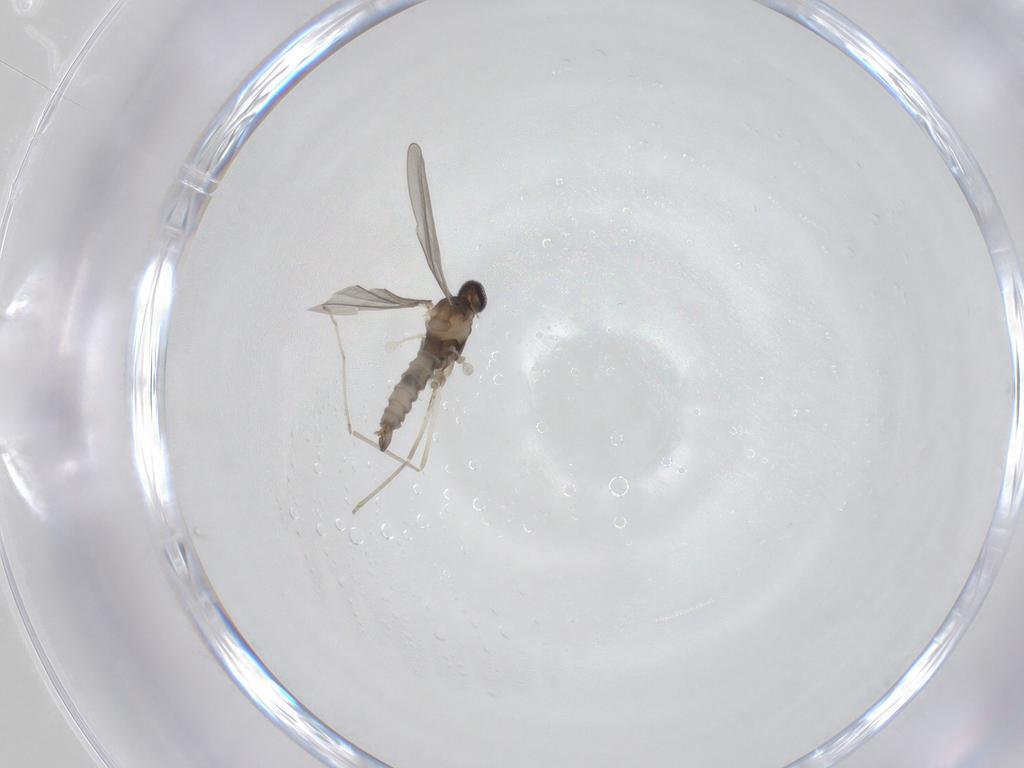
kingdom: Animalia
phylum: Arthropoda
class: Insecta
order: Diptera
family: Cecidomyiidae
